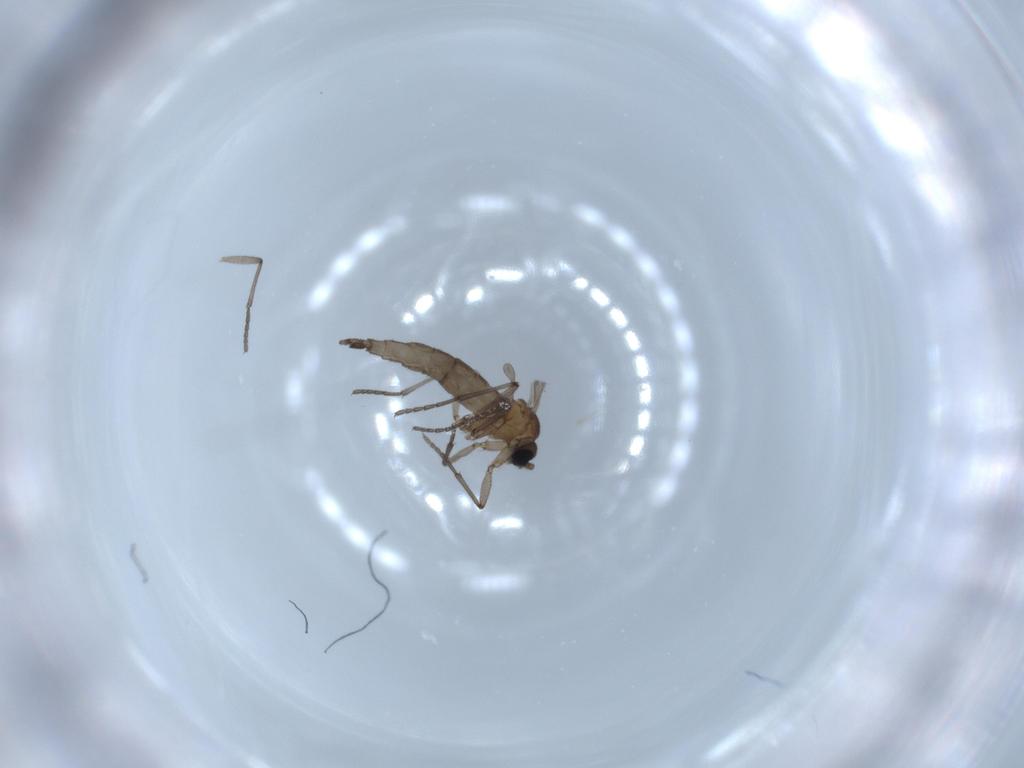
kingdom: Animalia
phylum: Arthropoda
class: Insecta
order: Diptera
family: Sciaridae
